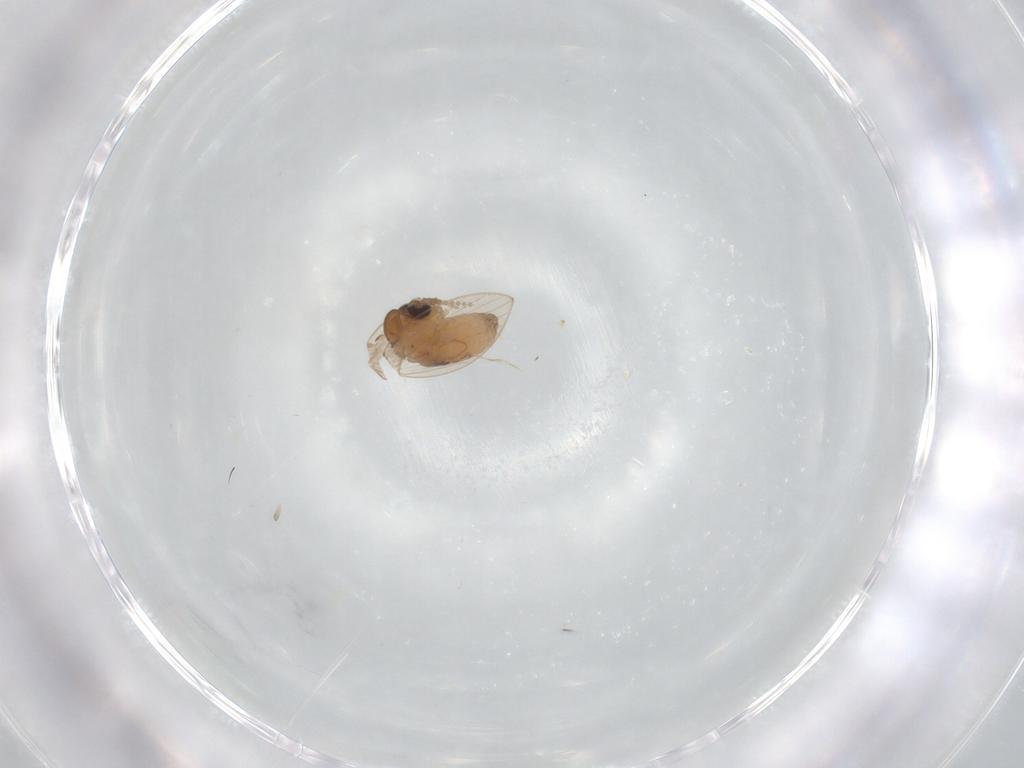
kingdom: Animalia
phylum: Arthropoda
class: Insecta
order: Diptera
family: Psychodidae
